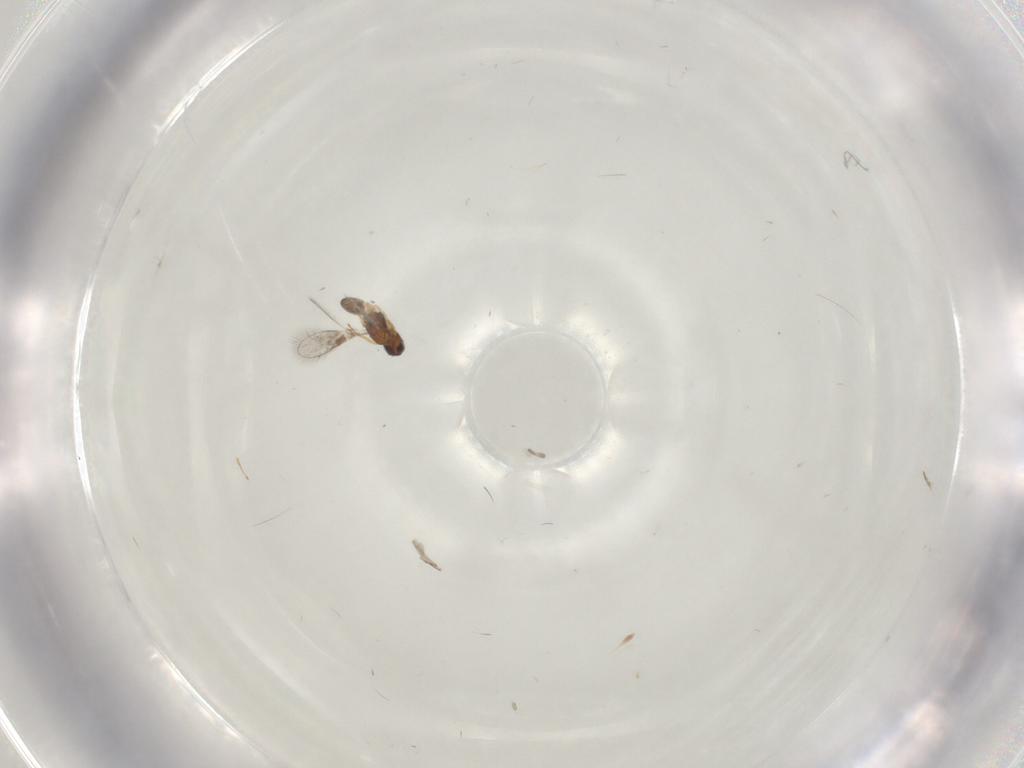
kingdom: Animalia
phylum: Arthropoda
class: Insecta
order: Hymenoptera
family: Mymaridae
